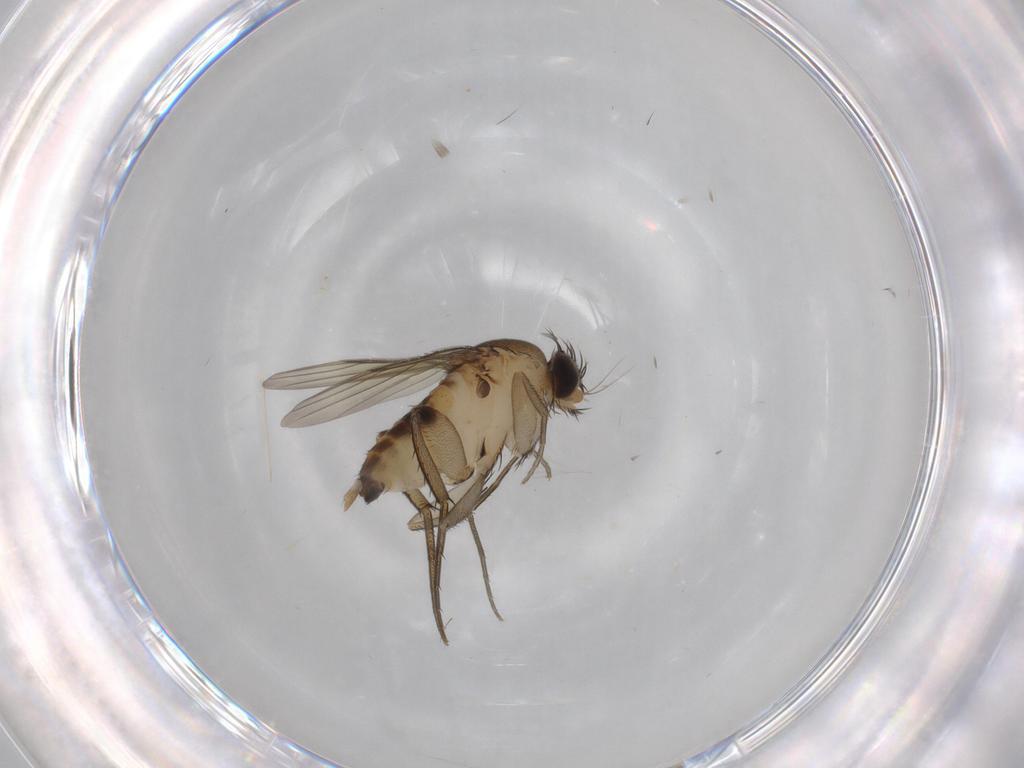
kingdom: Animalia
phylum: Arthropoda
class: Insecta
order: Diptera
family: Phoridae
